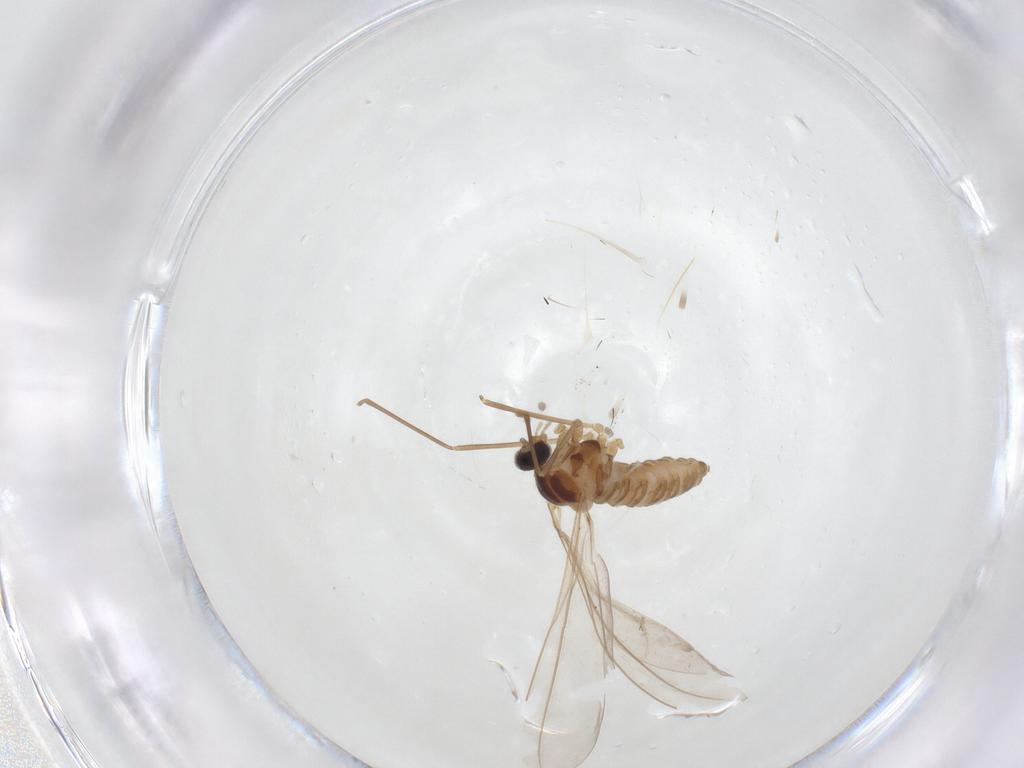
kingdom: Animalia
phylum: Arthropoda
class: Insecta
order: Diptera
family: Cecidomyiidae
